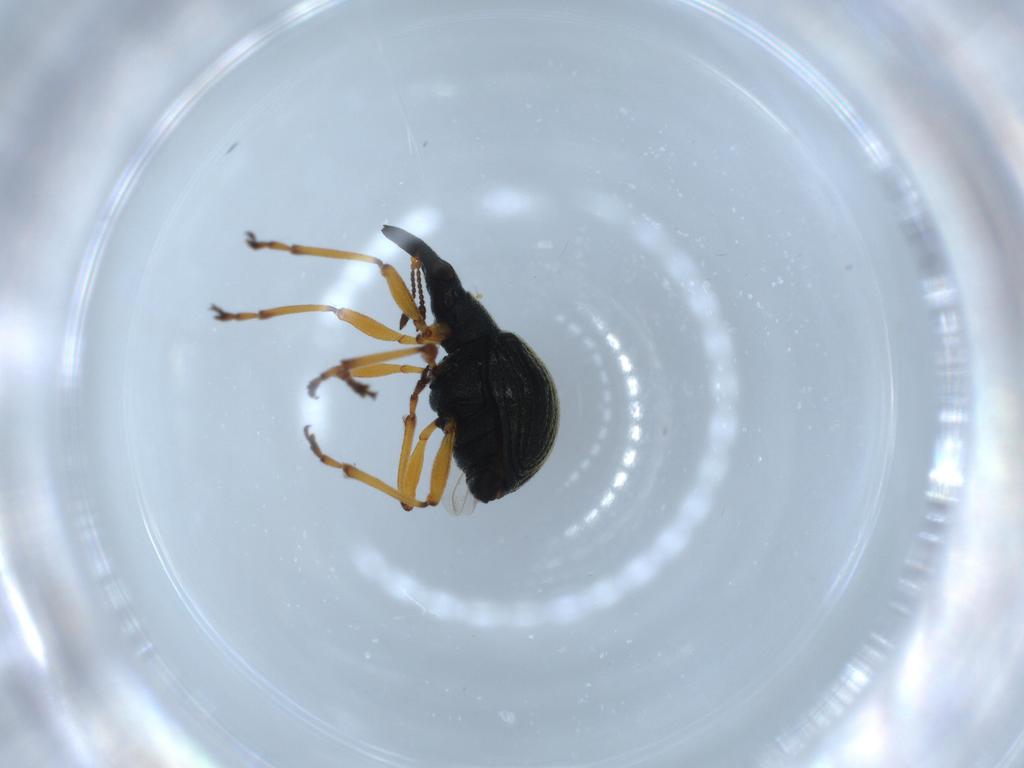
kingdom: Animalia
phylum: Arthropoda
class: Insecta
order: Coleoptera
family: Brentidae
